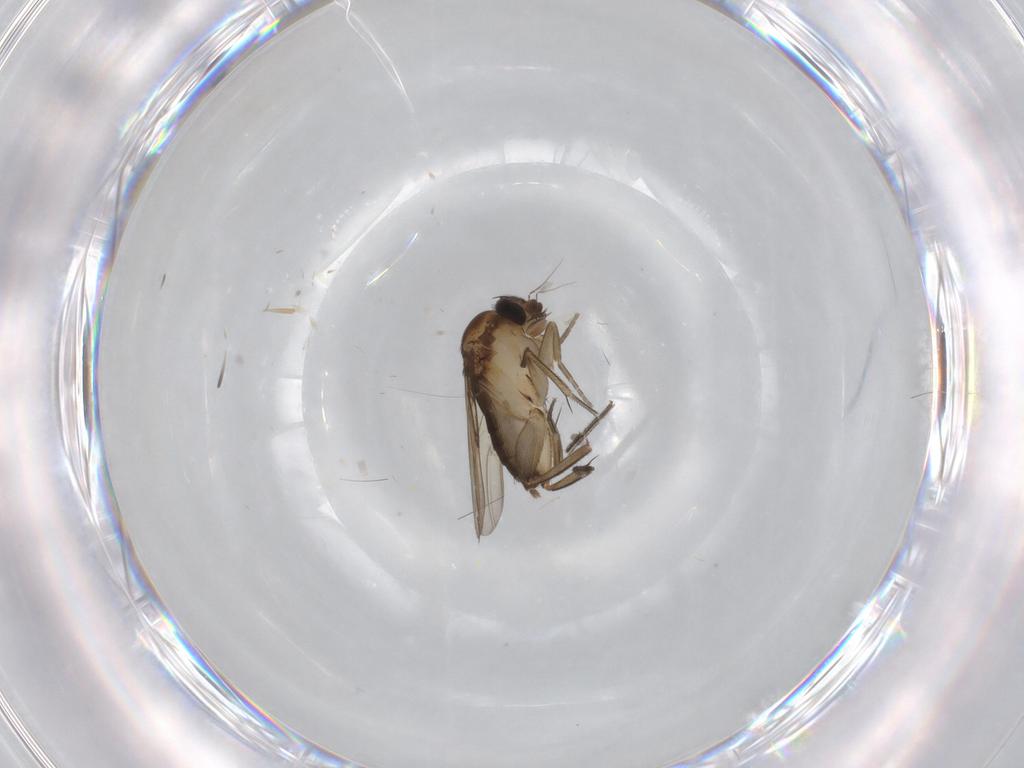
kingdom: Animalia
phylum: Arthropoda
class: Insecta
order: Diptera
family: Phoridae
